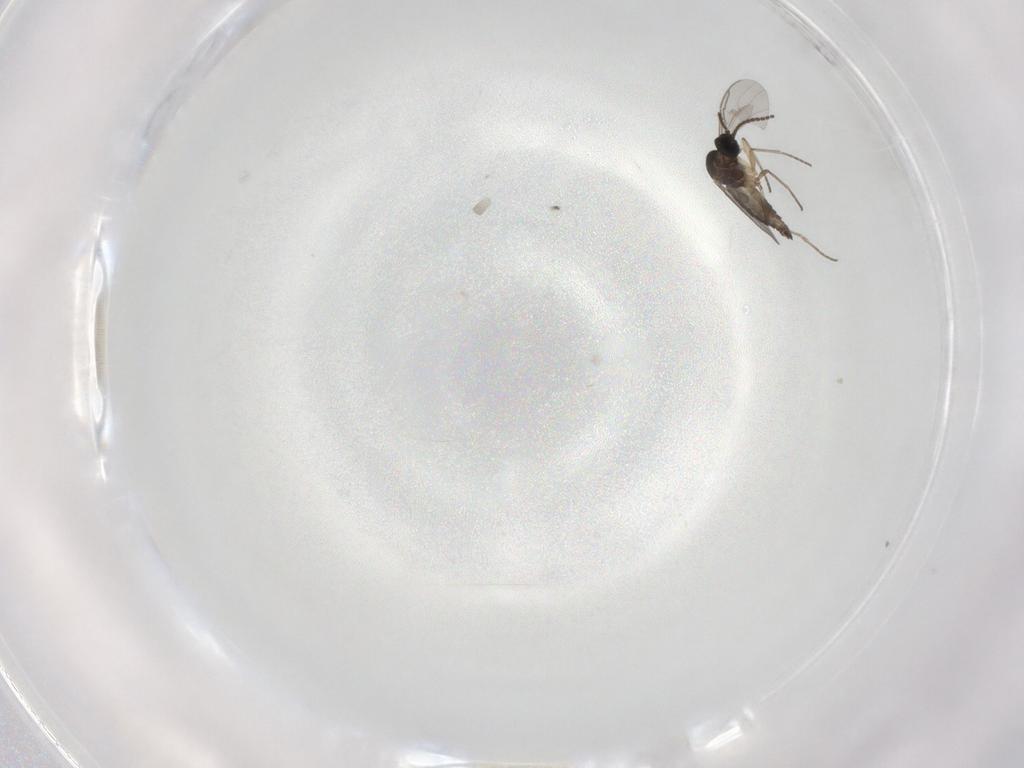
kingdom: Animalia
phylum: Arthropoda
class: Insecta
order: Diptera
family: Sciaridae
